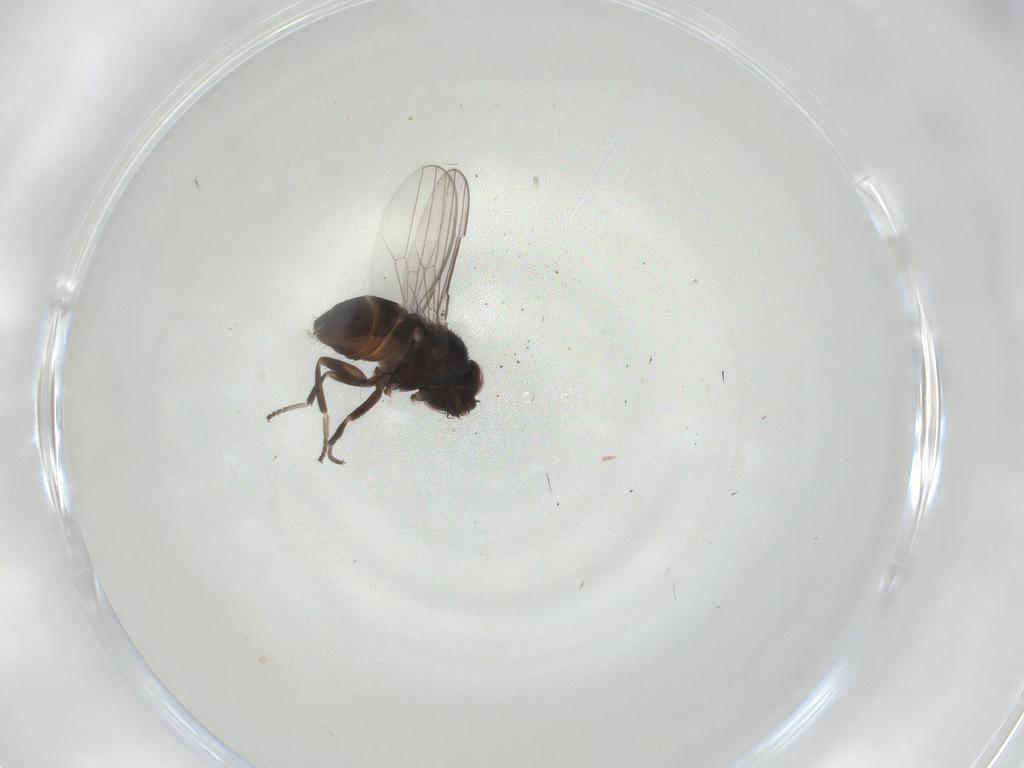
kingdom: Animalia
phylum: Arthropoda
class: Insecta
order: Diptera
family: Milichiidae
